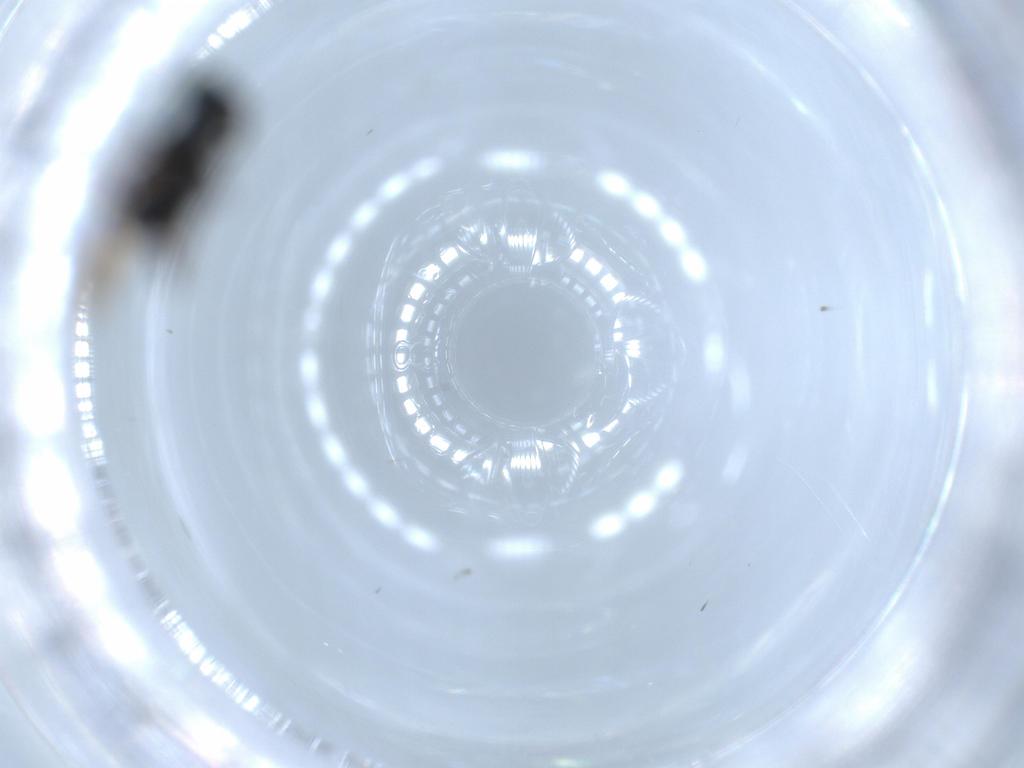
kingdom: Animalia
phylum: Arthropoda
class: Insecta
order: Hymenoptera
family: Bethylidae
